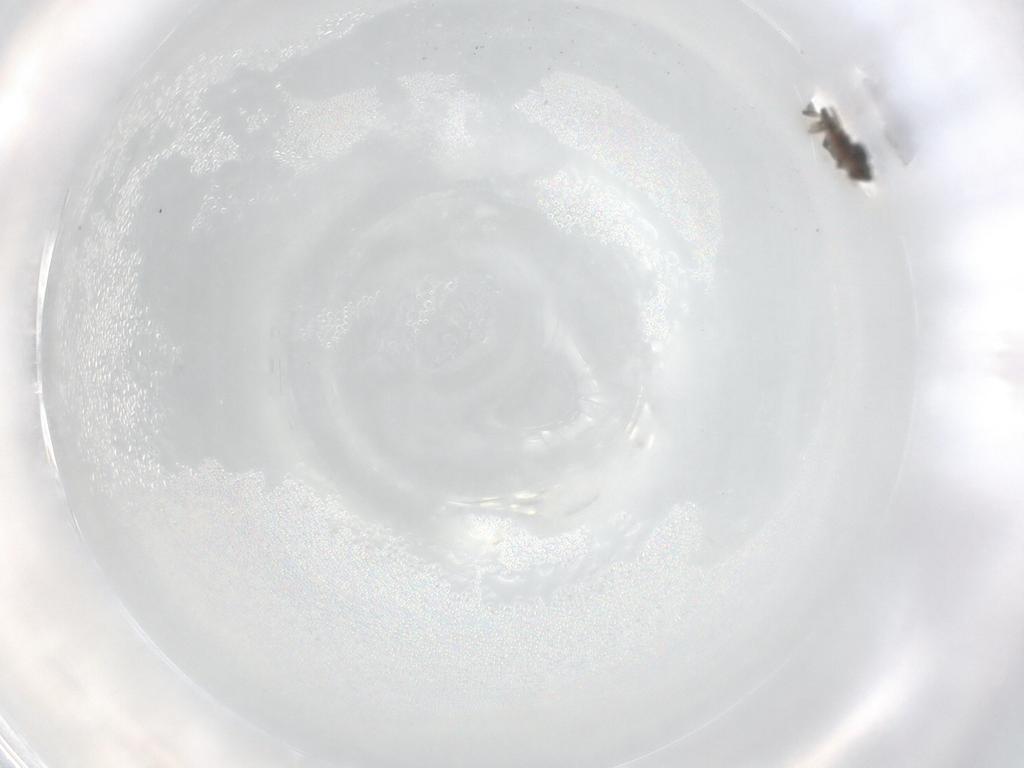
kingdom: Animalia
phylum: Arthropoda
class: Insecta
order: Diptera
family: Cecidomyiidae
